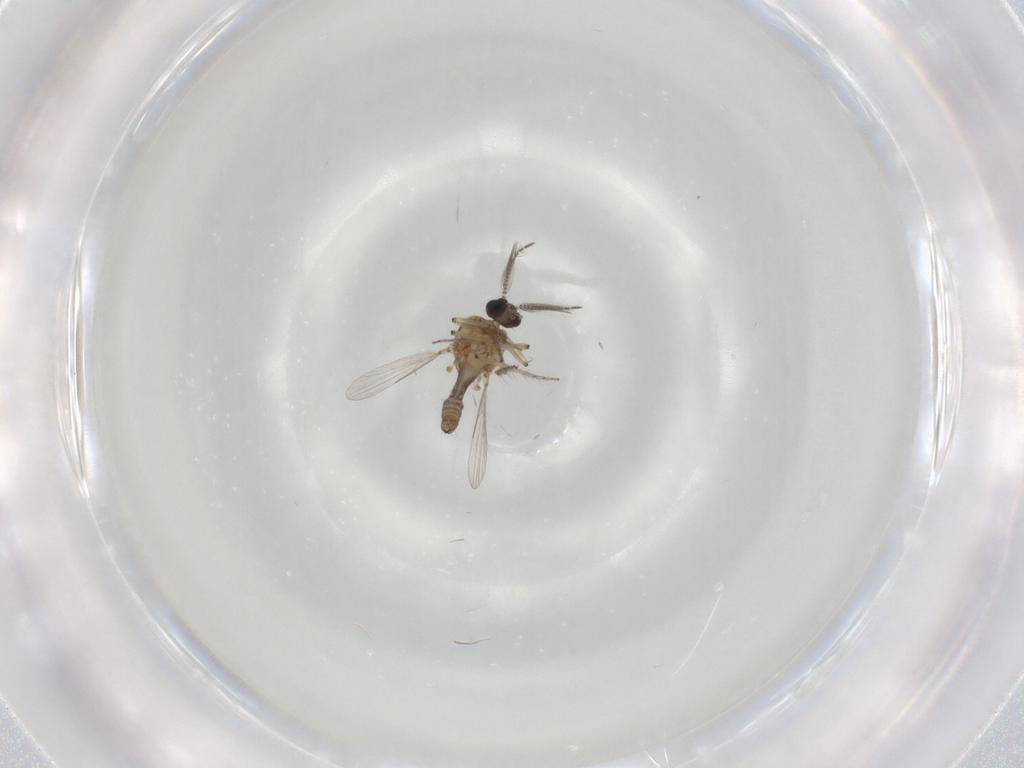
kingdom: Animalia
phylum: Arthropoda
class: Insecta
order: Diptera
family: Ceratopogonidae
